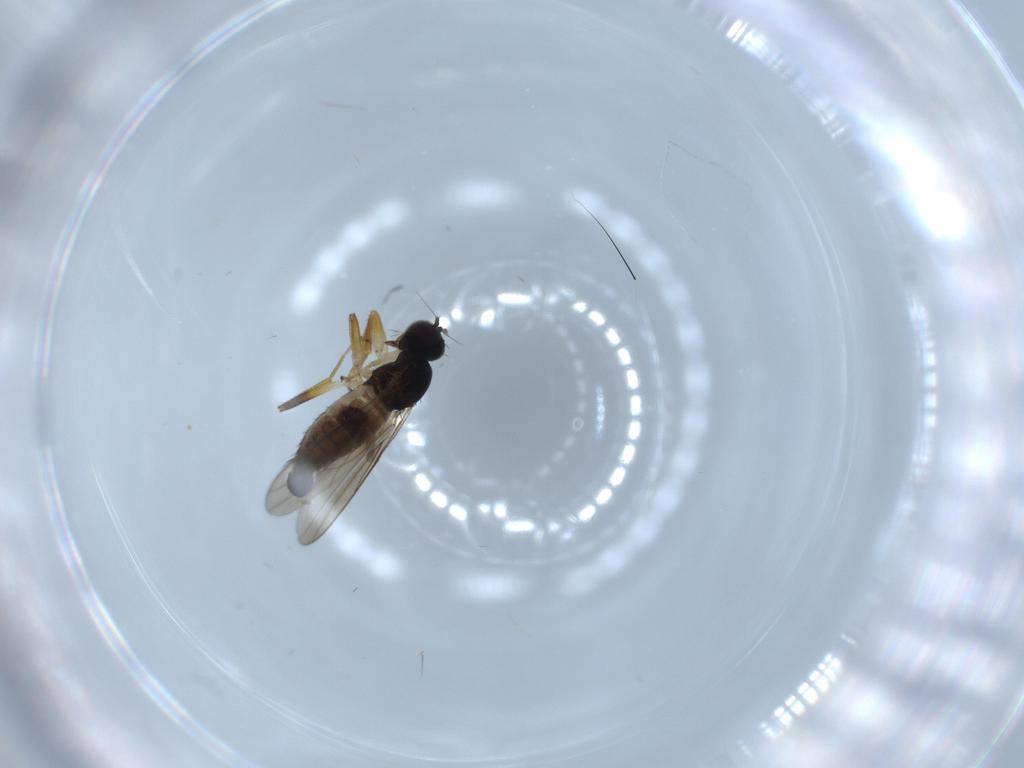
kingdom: Animalia
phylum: Arthropoda
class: Insecta
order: Diptera
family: Hybotidae
